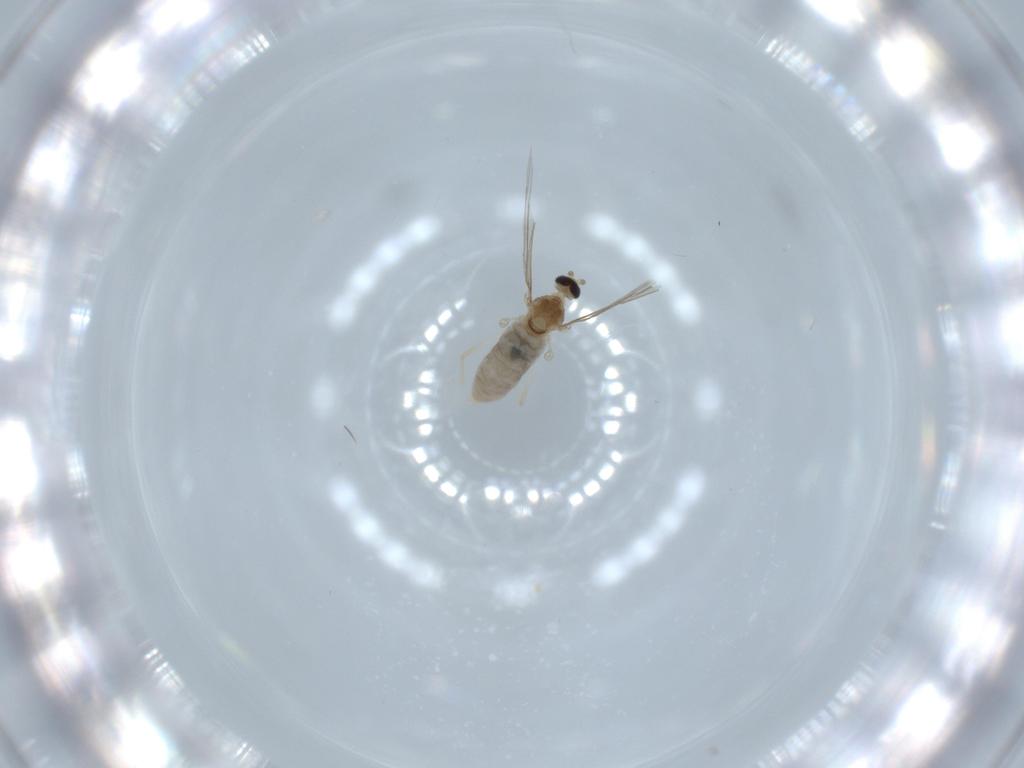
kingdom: Animalia
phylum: Arthropoda
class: Insecta
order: Diptera
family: Cecidomyiidae
